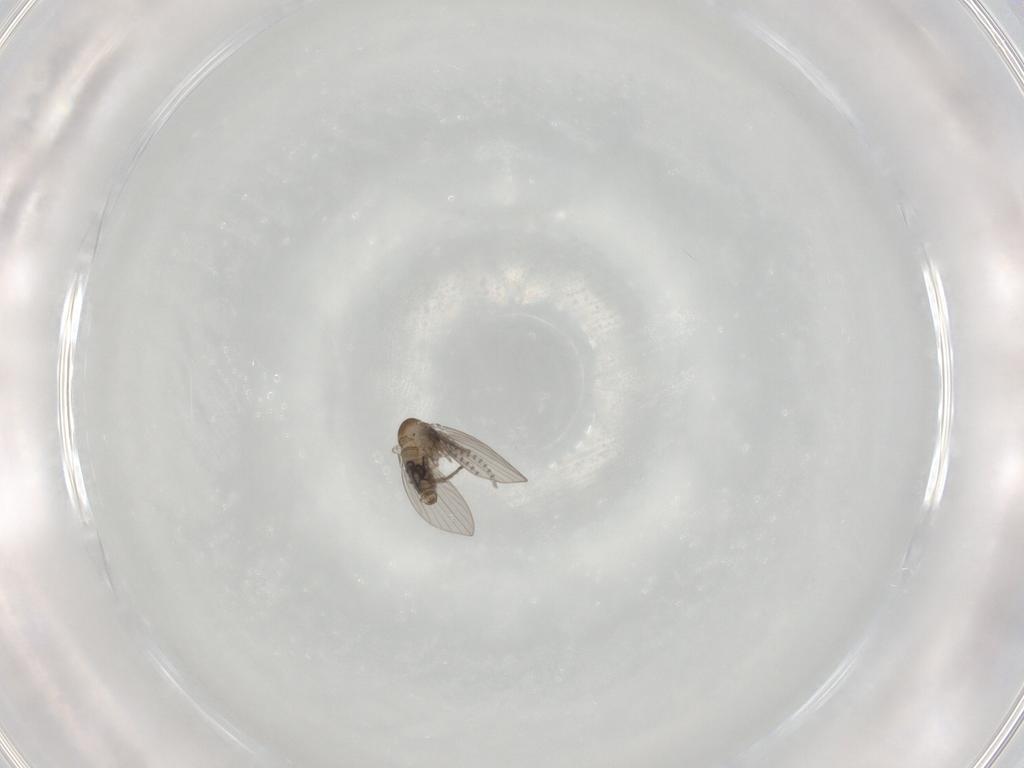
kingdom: Animalia
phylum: Arthropoda
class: Insecta
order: Diptera
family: Psychodidae
